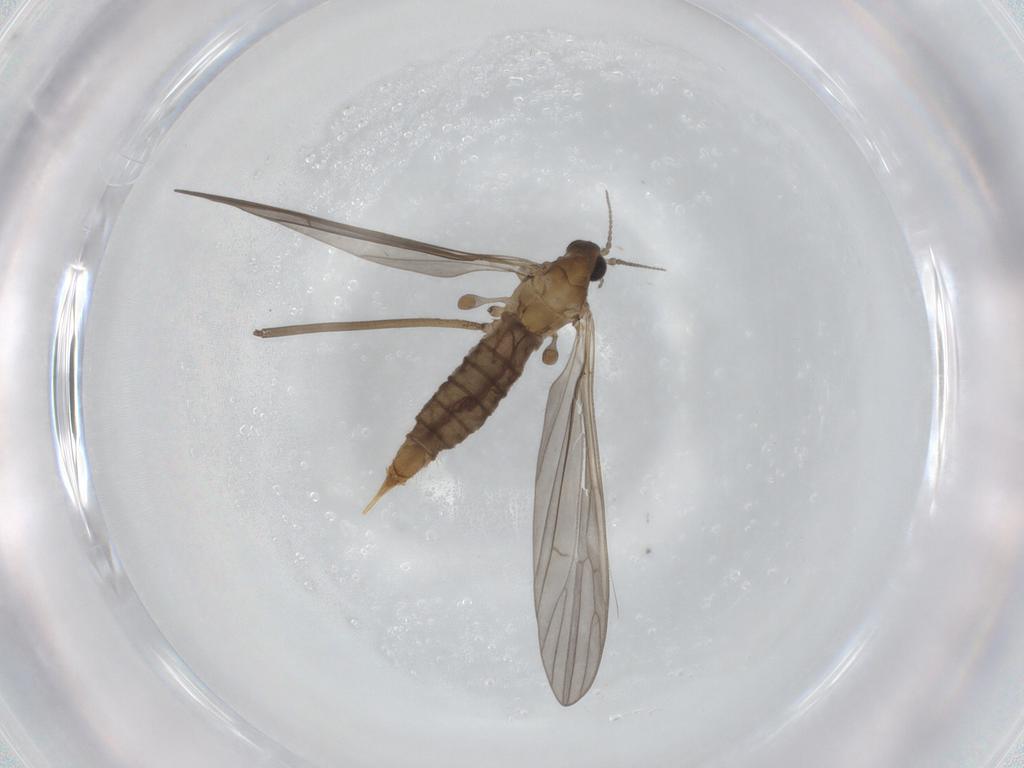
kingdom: Animalia
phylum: Arthropoda
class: Insecta
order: Diptera
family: Limoniidae
